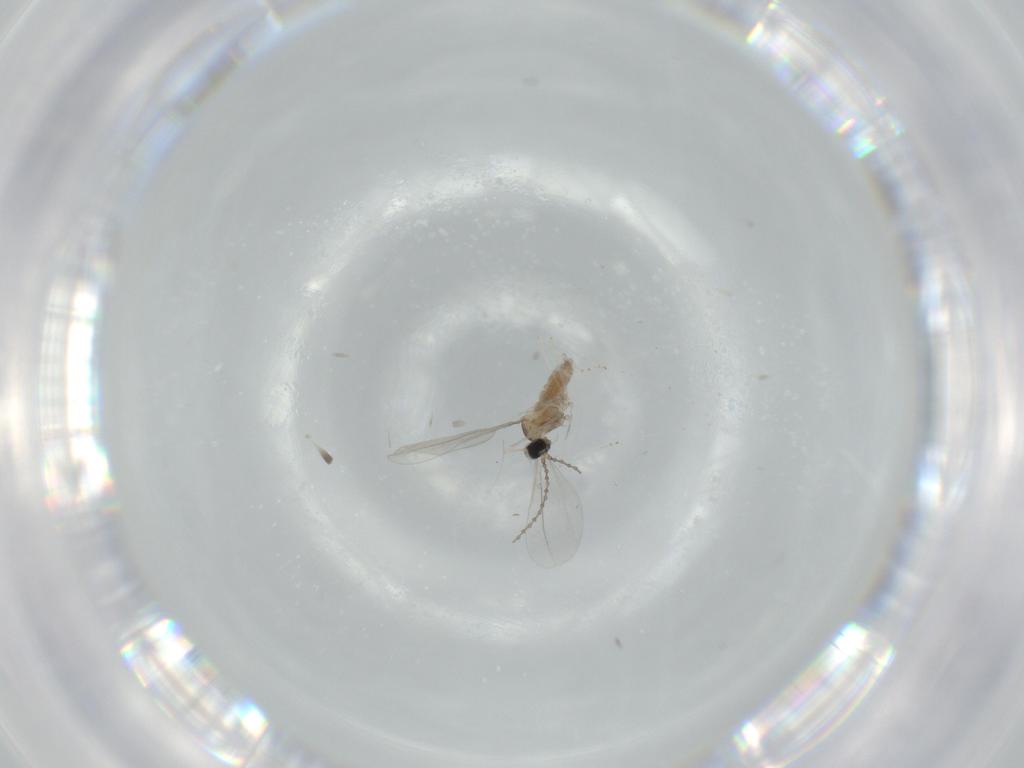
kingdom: Animalia
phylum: Arthropoda
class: Insecta
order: Diptera
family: Cecidomyiidae
